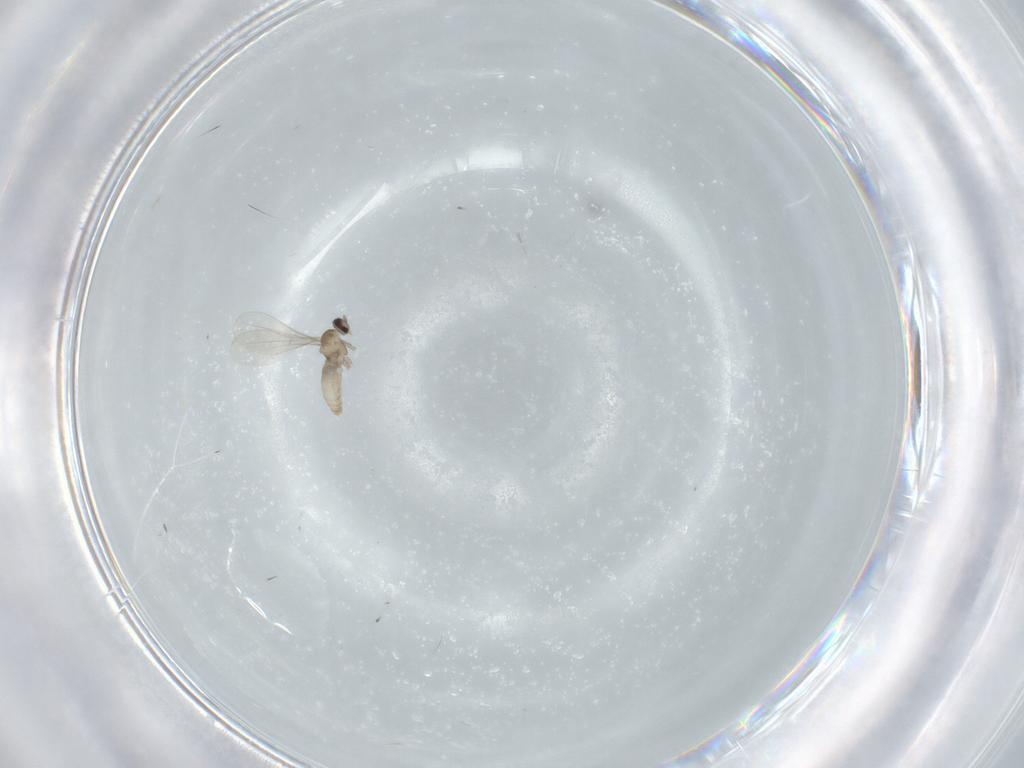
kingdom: Animalia
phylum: Arthropoda
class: Insecta
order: Diptera
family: Cecidomyiidae
